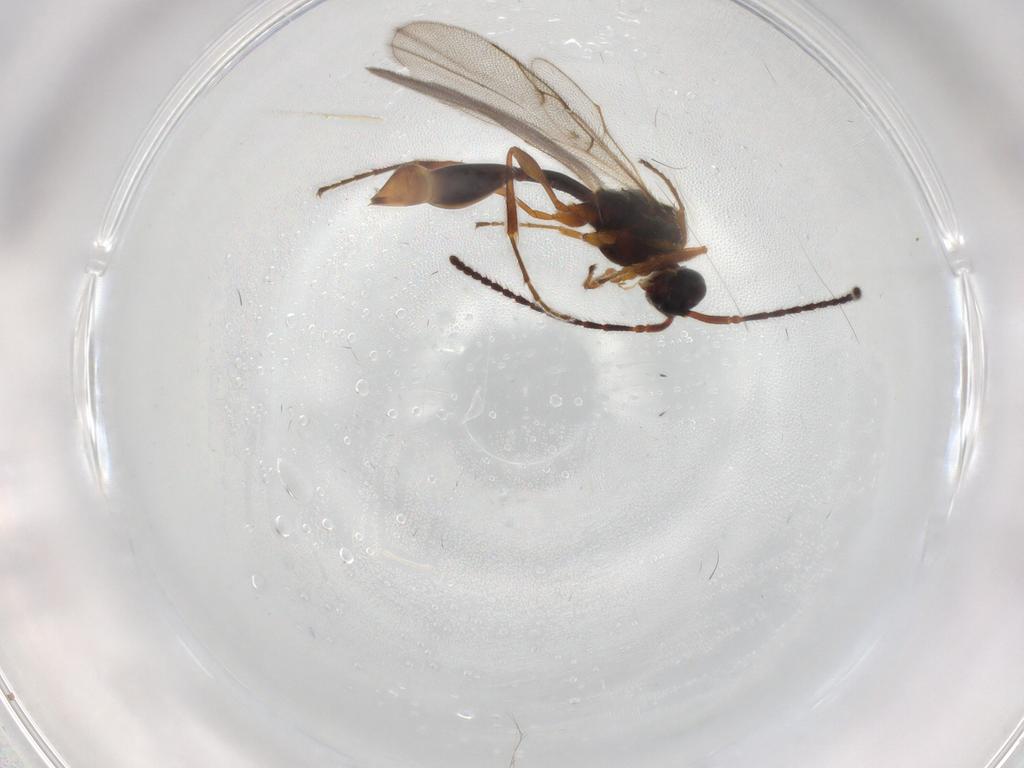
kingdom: Animalia
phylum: Arthropoda
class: Insecta
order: Hymenoptera
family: Diapriidae
